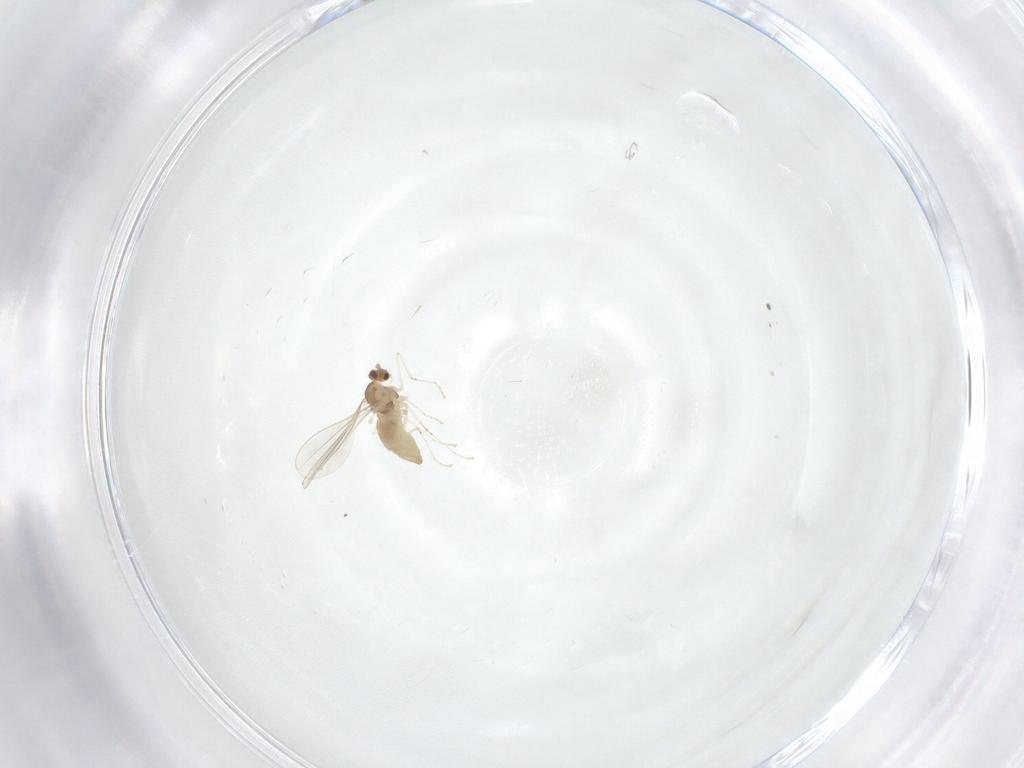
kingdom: Animalia
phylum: Arthropoda
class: Insecta
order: Diptera
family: Cecidomyiidae
